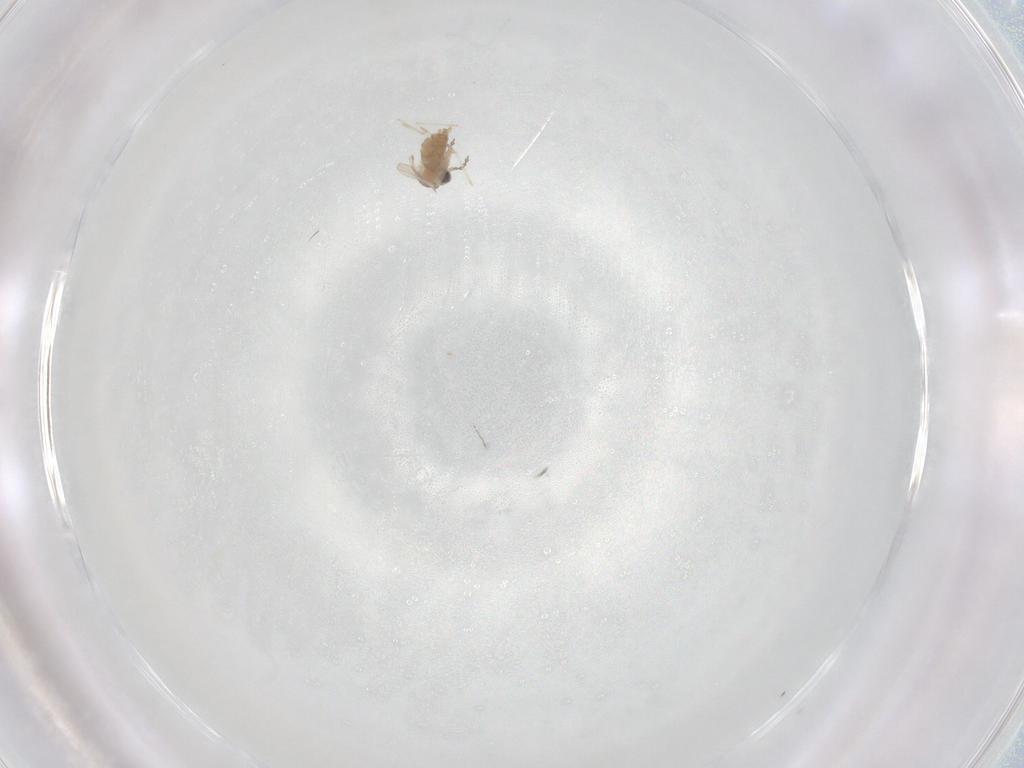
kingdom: Animalia
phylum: Arthropoda
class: Insecta
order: Diptera
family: Cecidomyiidae
